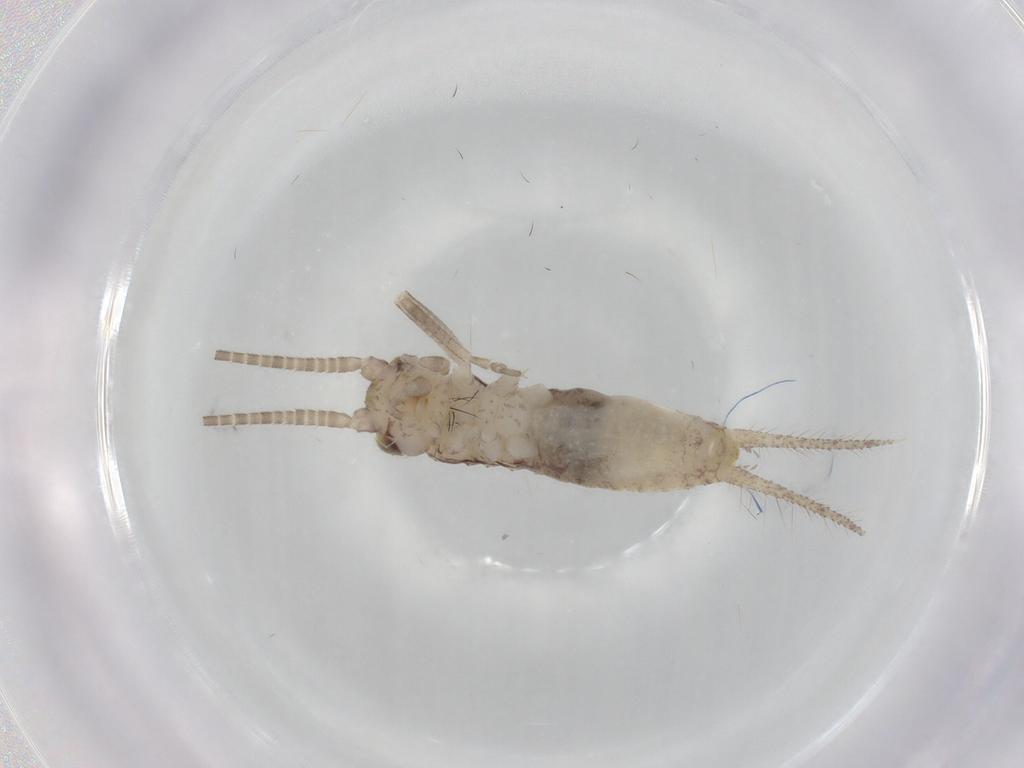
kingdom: Animalia
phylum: Arthropoda
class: Insecta
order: Orthoptera
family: Gryllidae
